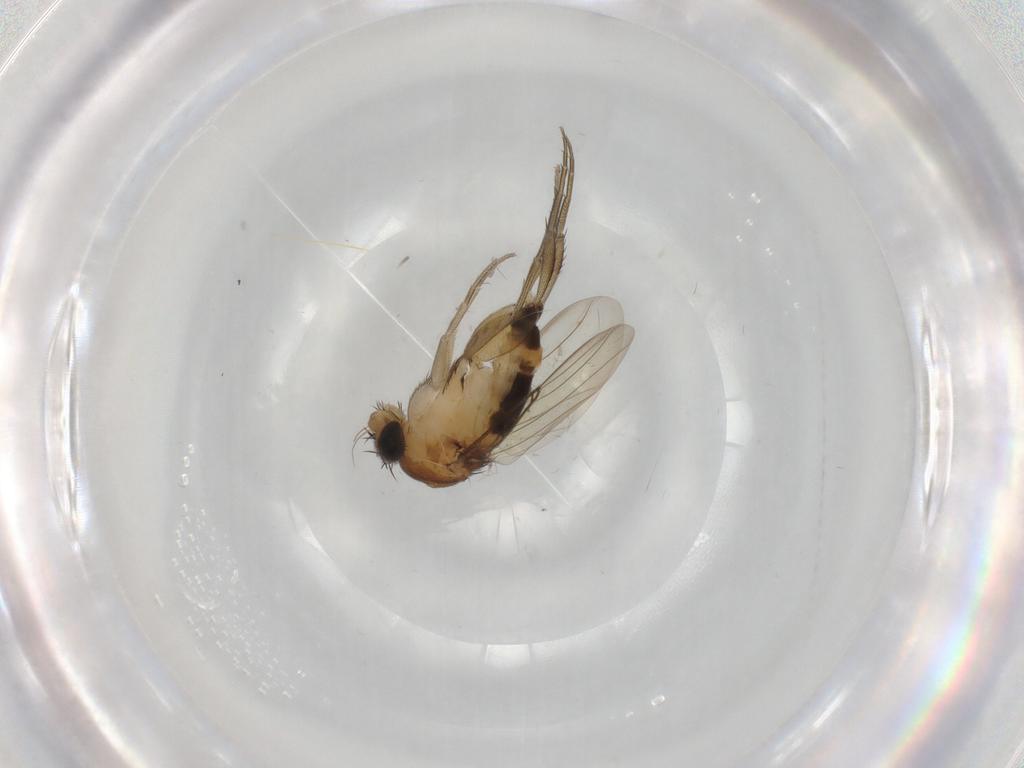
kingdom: Animalia
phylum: Arthropoda
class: Insecta
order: Diptera
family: Phoridae
